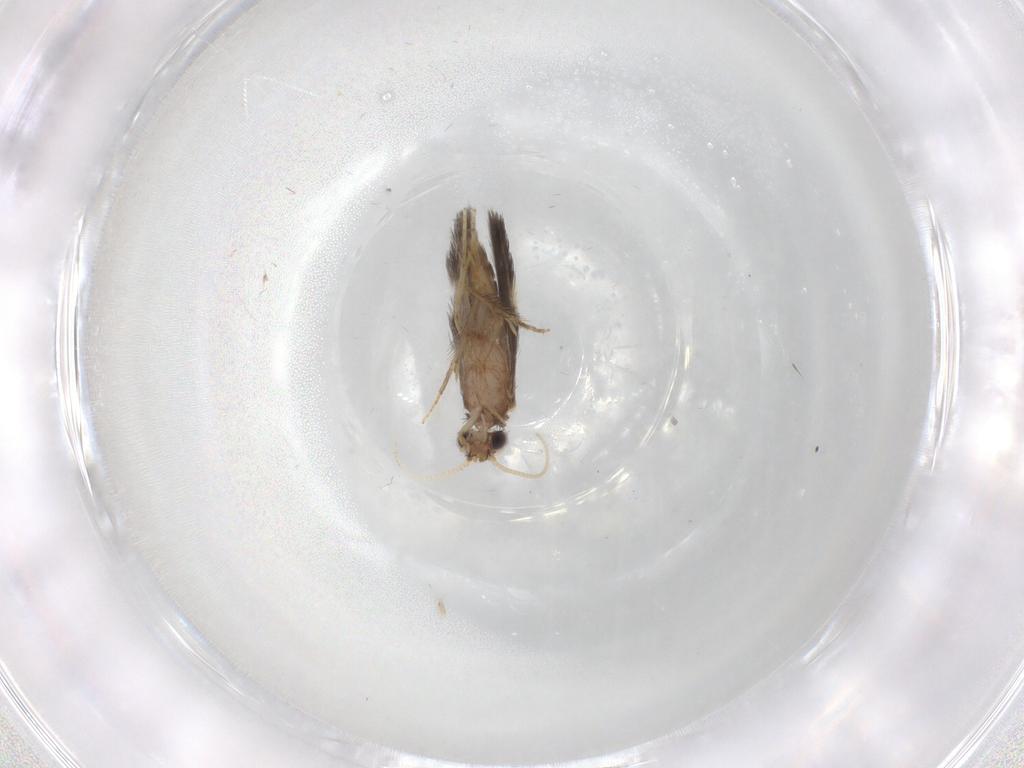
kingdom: Animalia
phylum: Arthropoda
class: Insecta
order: Trichoptera
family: Hydroptilidae
